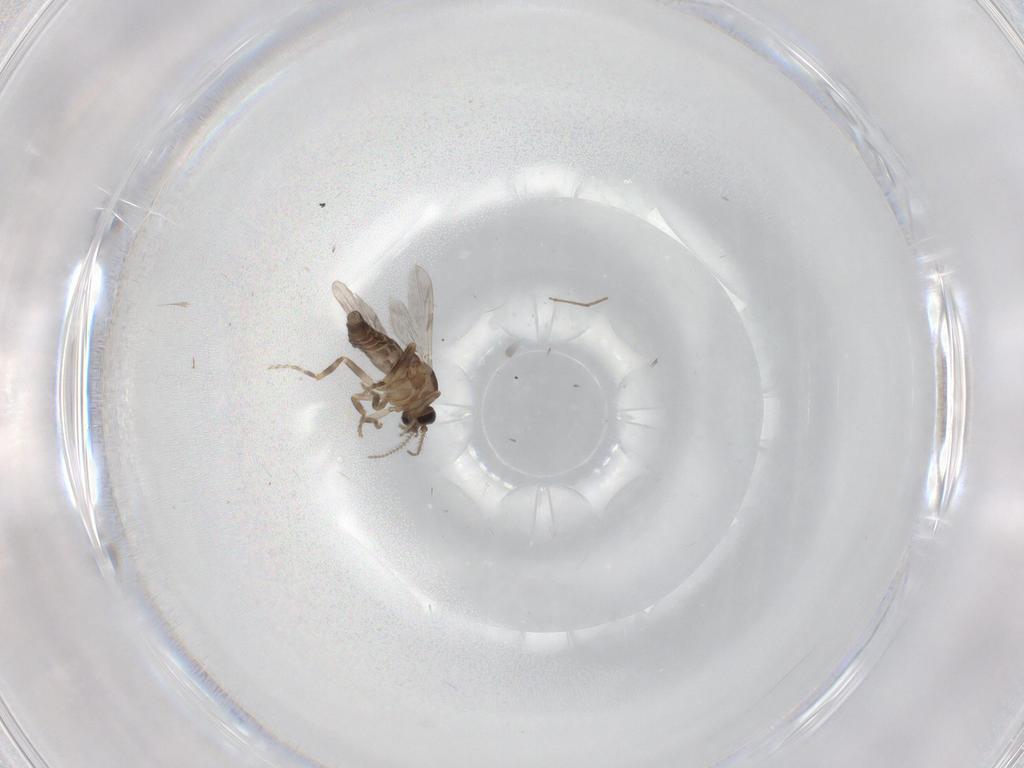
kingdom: Animalia
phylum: Arthropoda
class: Insecta
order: Diptera
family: Ceratopogonidae
